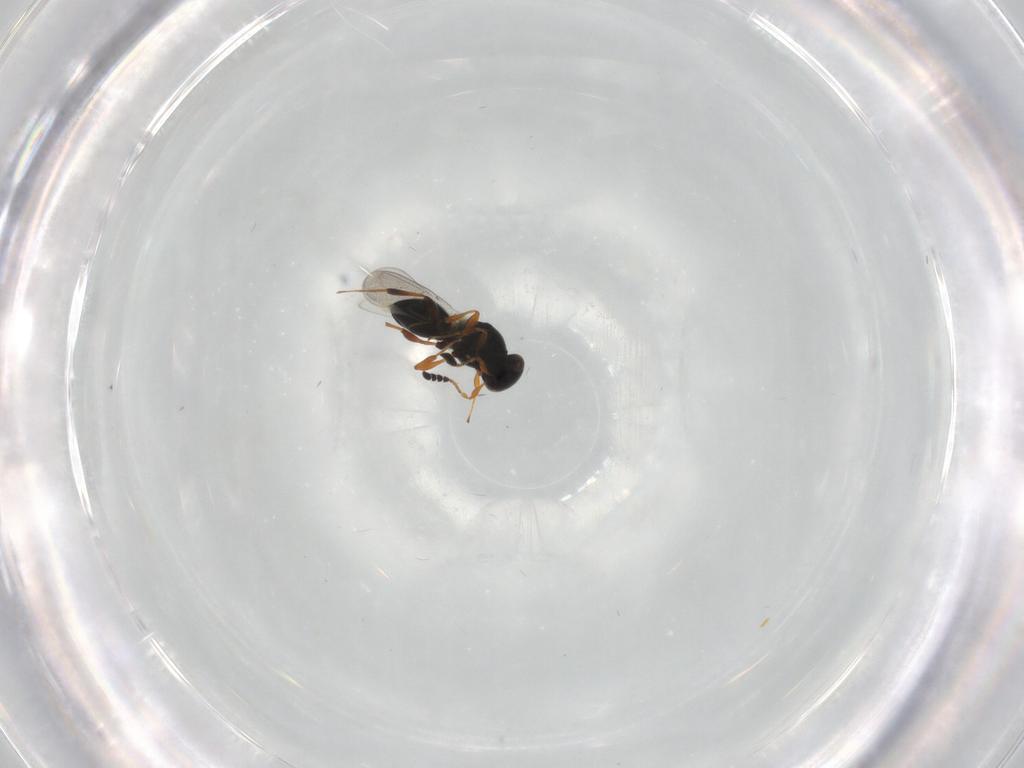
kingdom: Animalia
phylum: Arthropoda
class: Insecta
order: Hymenoptera
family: Platygastridae
